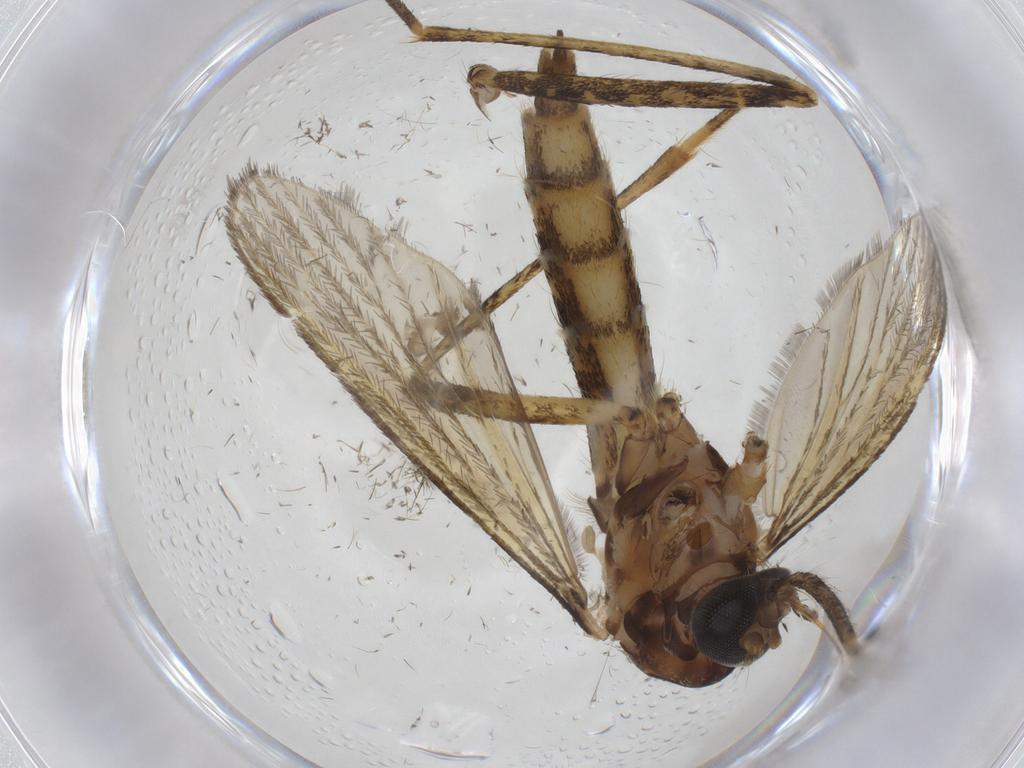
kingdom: Animalia
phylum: Arthropoda
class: Insecta
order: Diptera
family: Culicidae
